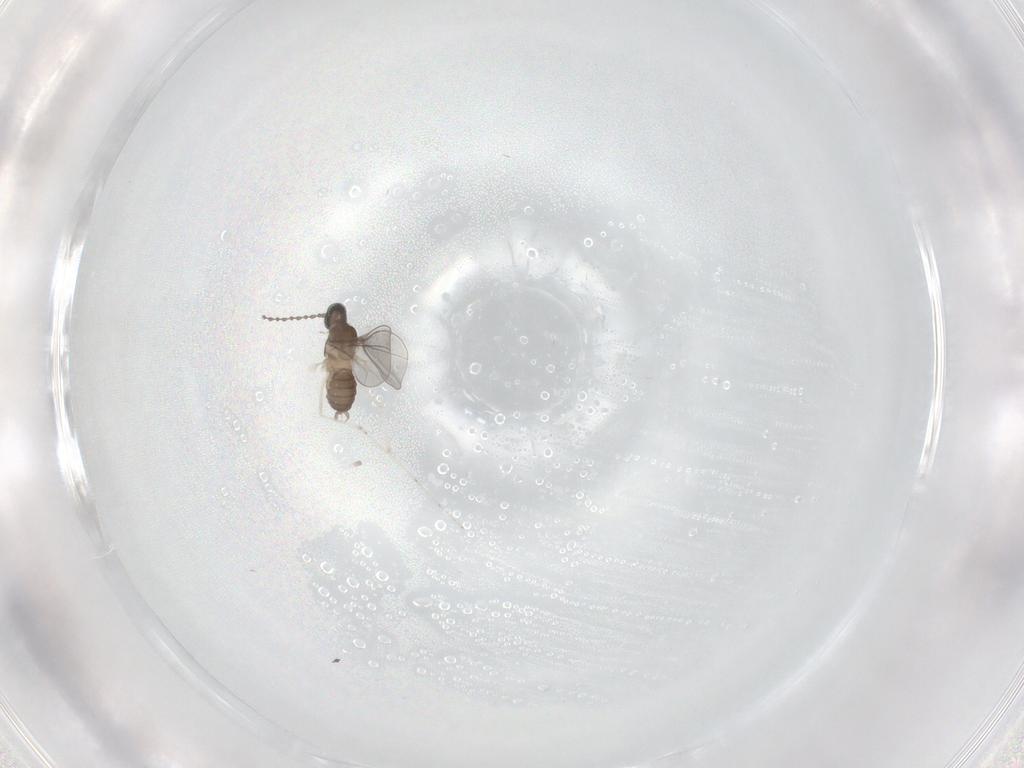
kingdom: Animalia
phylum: Arthropoda
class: Insecta
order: Diptera
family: Cecidomyiidae
